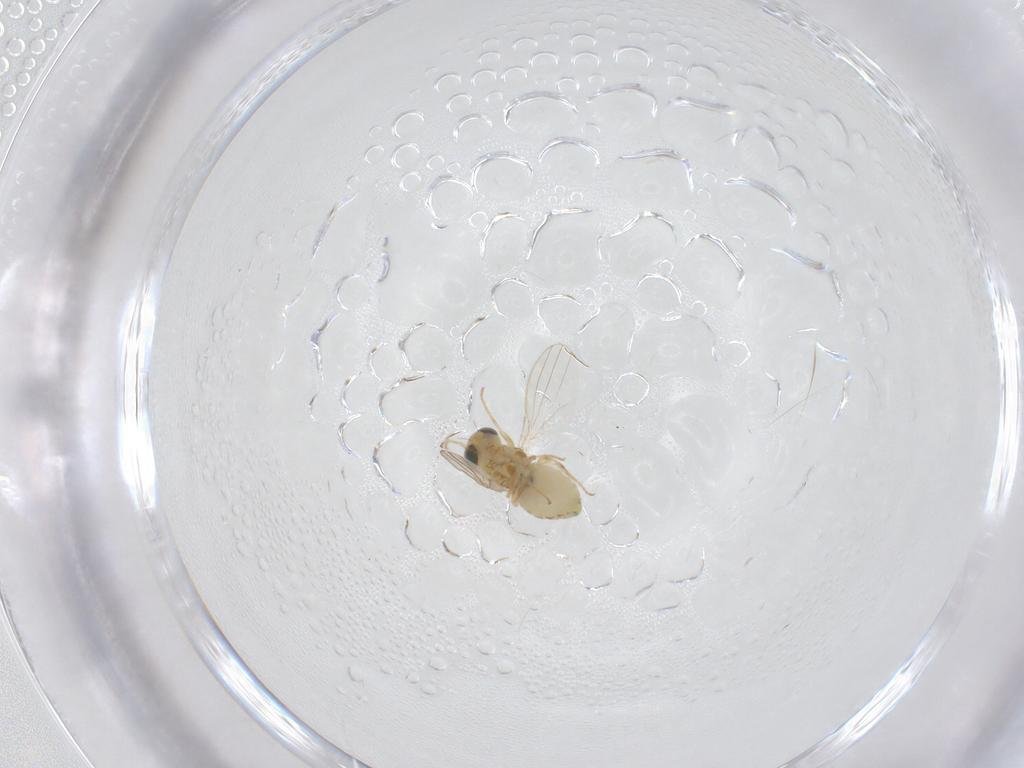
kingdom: Animalia
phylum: Arthropoda
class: Insecta
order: Diptera
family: Chyromyidae
